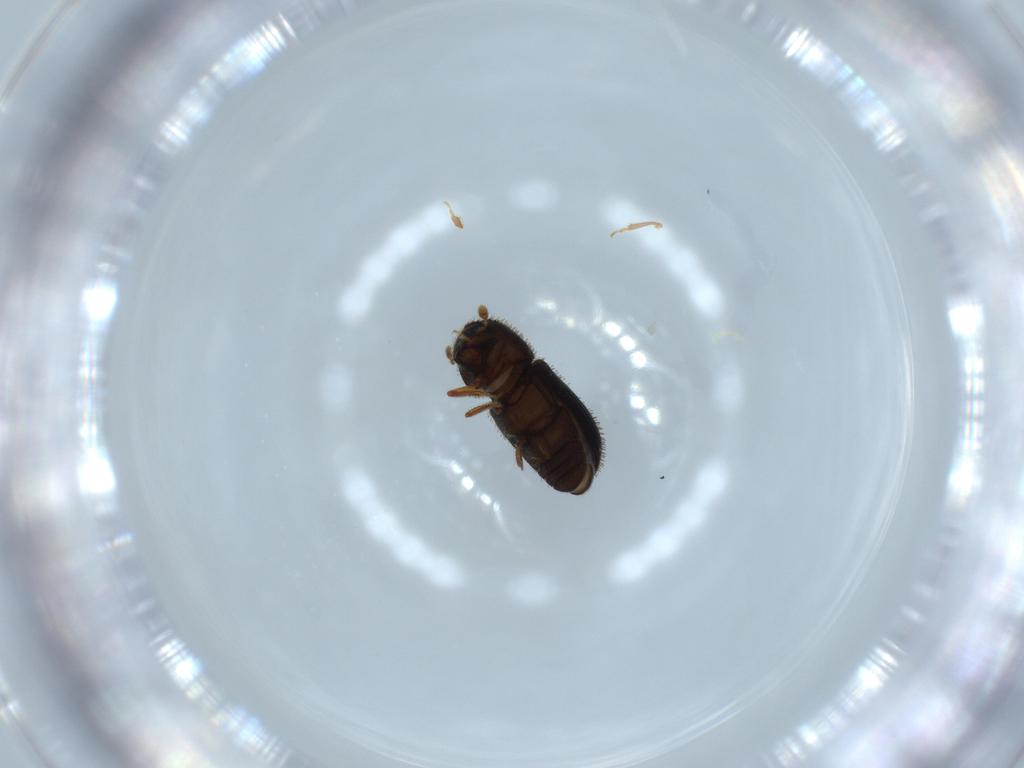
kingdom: Animalia
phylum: Arthropoda
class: Insecta
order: Coleoptera
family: Curculionidae
